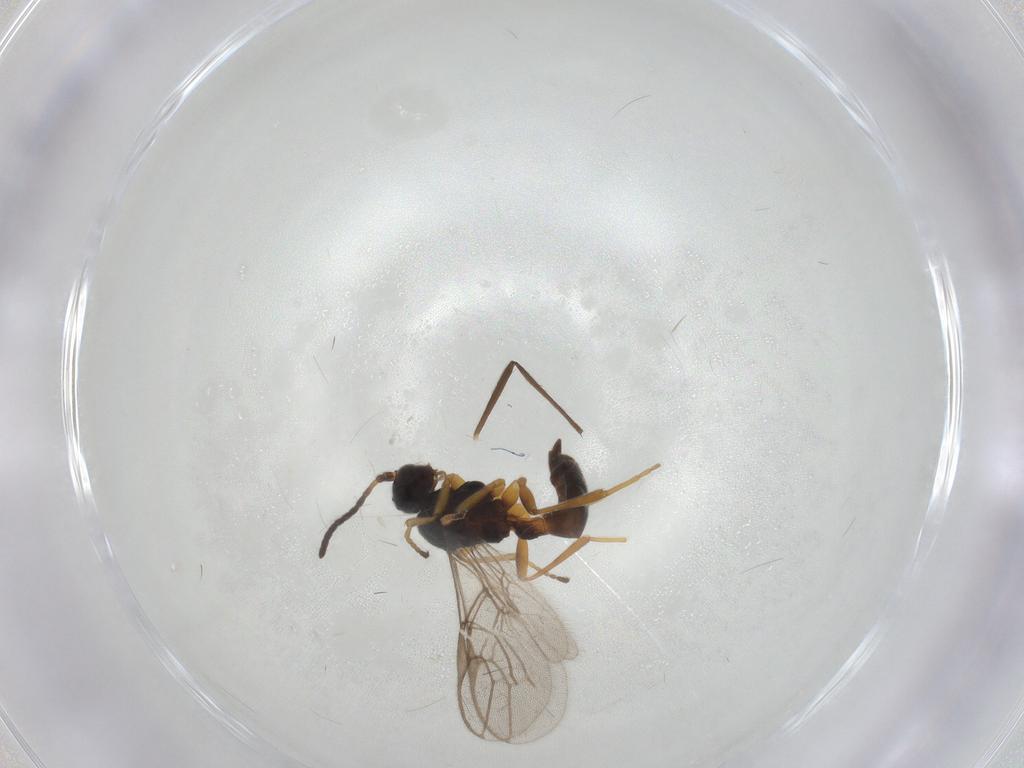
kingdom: Animalia
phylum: Arthropoda
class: Insecta
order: Hymenoptera
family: Braconidae
